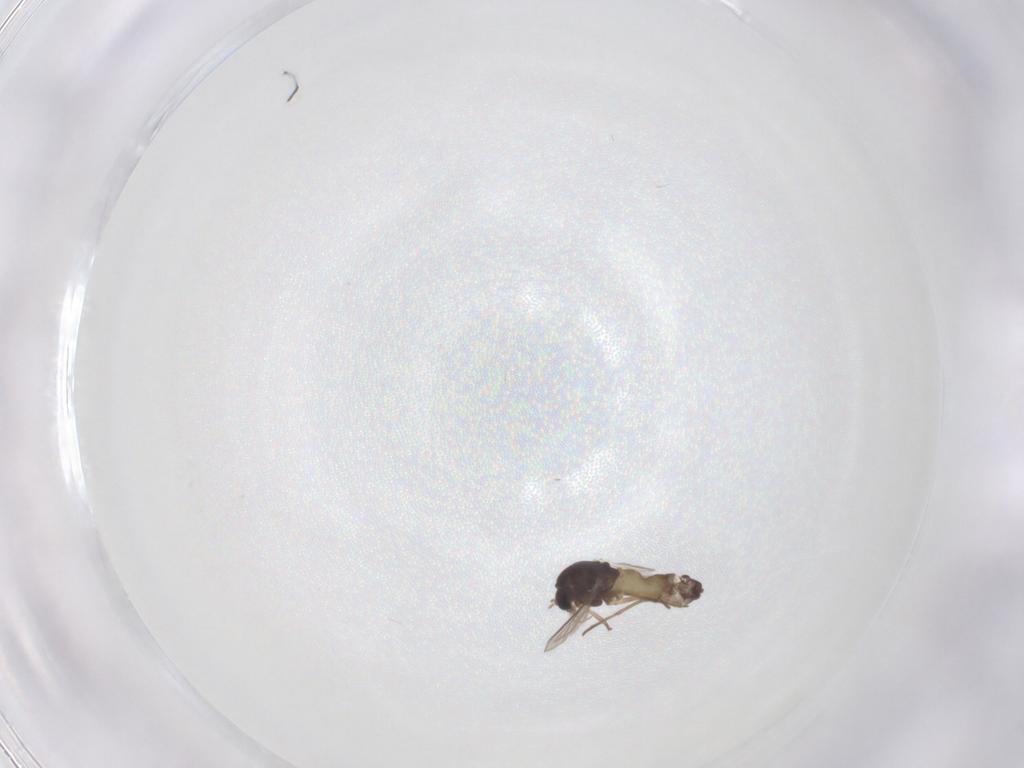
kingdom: Animalia
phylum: Arthropoda
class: Insecta
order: Diptera
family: Chironomidae
